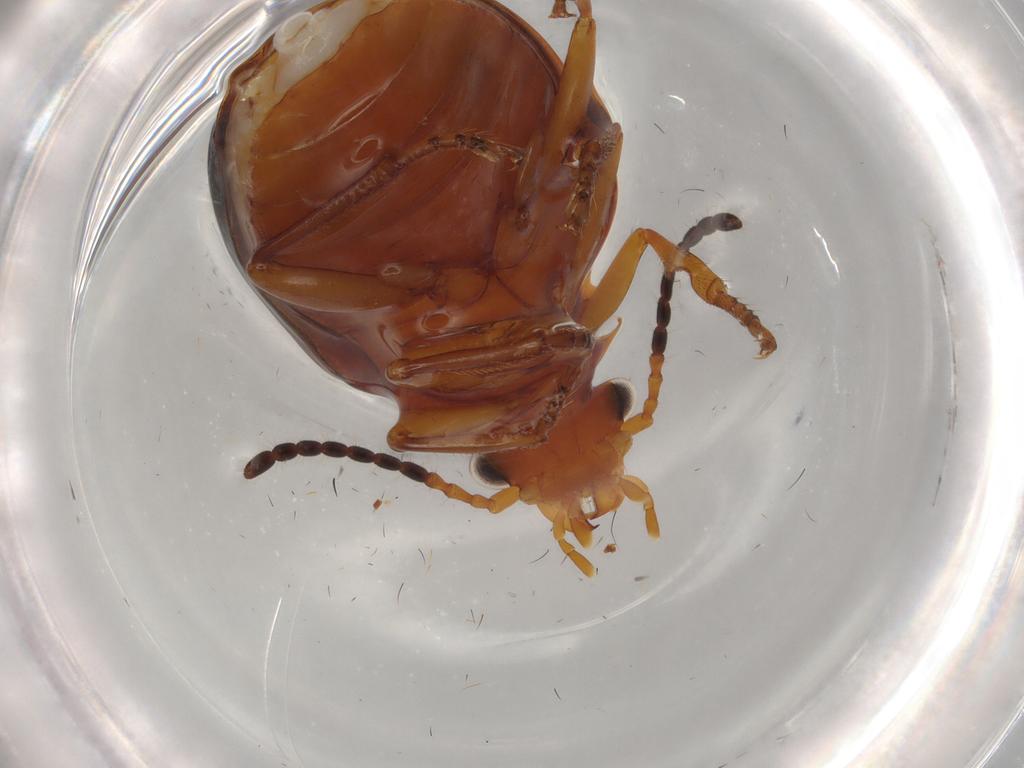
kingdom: Animalia
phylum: Arthropoda
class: Insecta
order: Coleoptera
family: Carabidae
